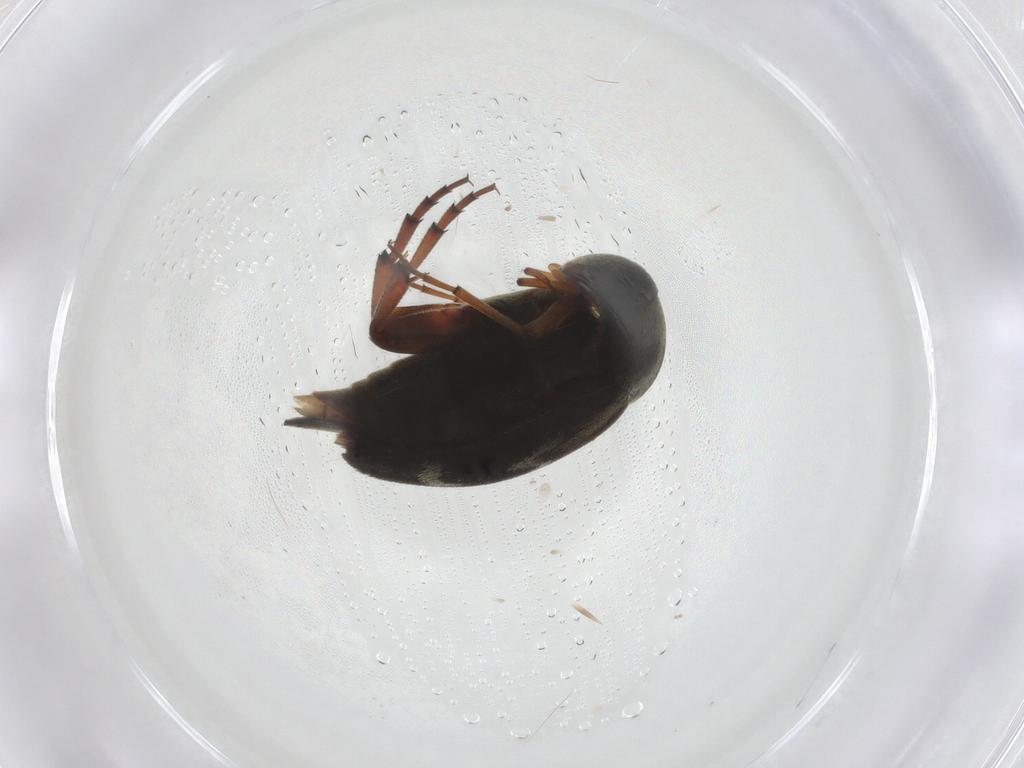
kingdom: Animalia
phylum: Arthropoda
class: Insecta
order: Coleoptera
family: Mordellidae
